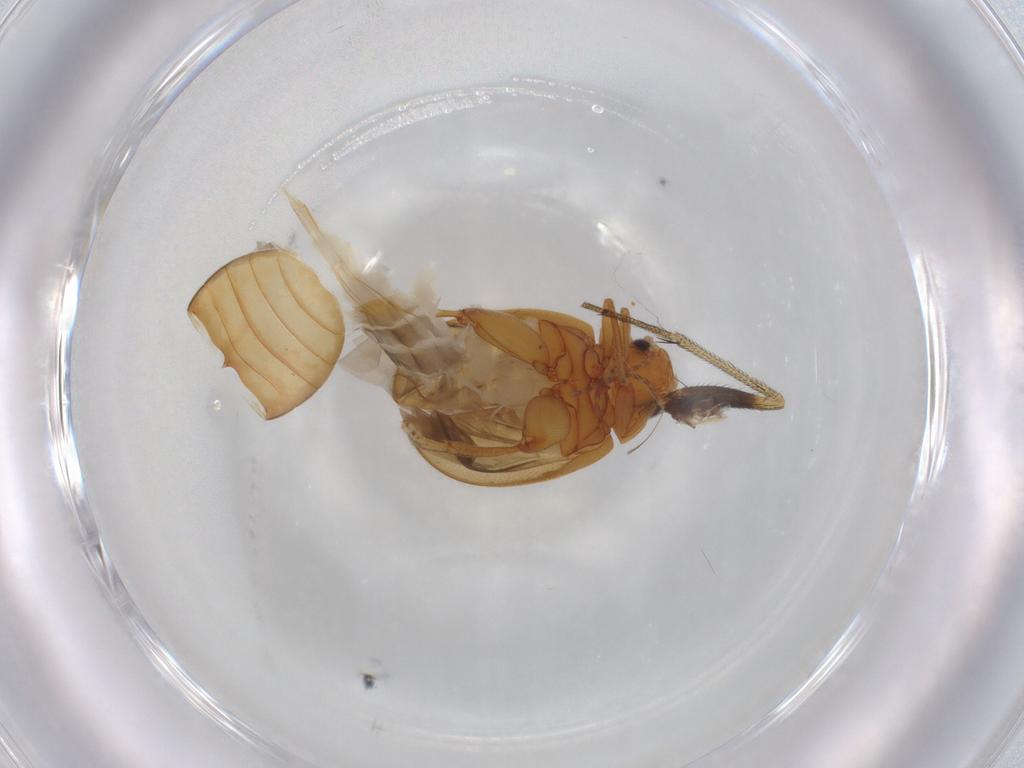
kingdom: Animalia
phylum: Arthropoda
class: Insecta
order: Coleoptera
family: Scirtidae
